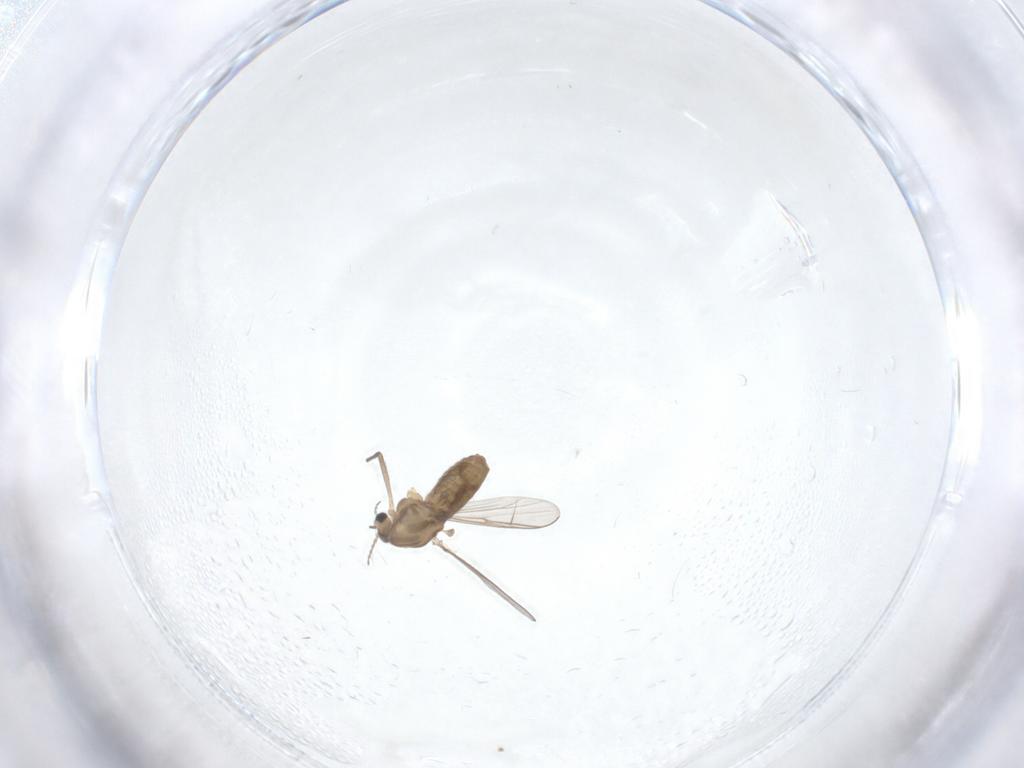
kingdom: Animalia
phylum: Arthropoda
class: Insecta
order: Diptera
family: Chironomidae
